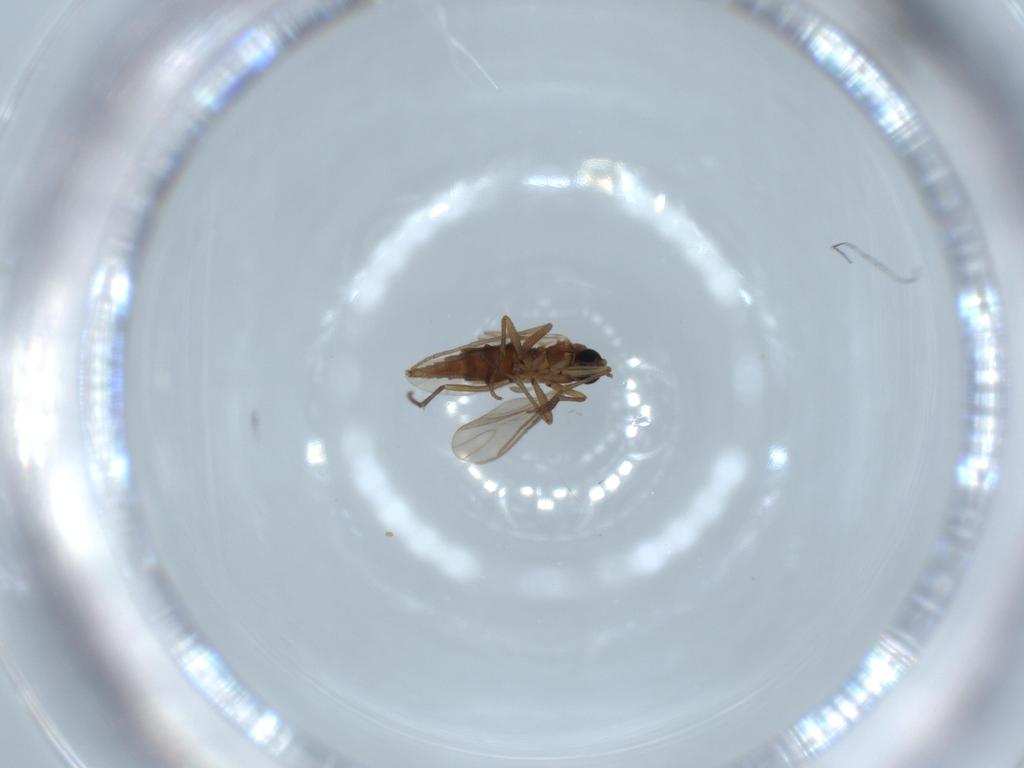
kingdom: Animalia
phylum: Arthropoda
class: Insecta
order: Diptera
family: Sciaridae
